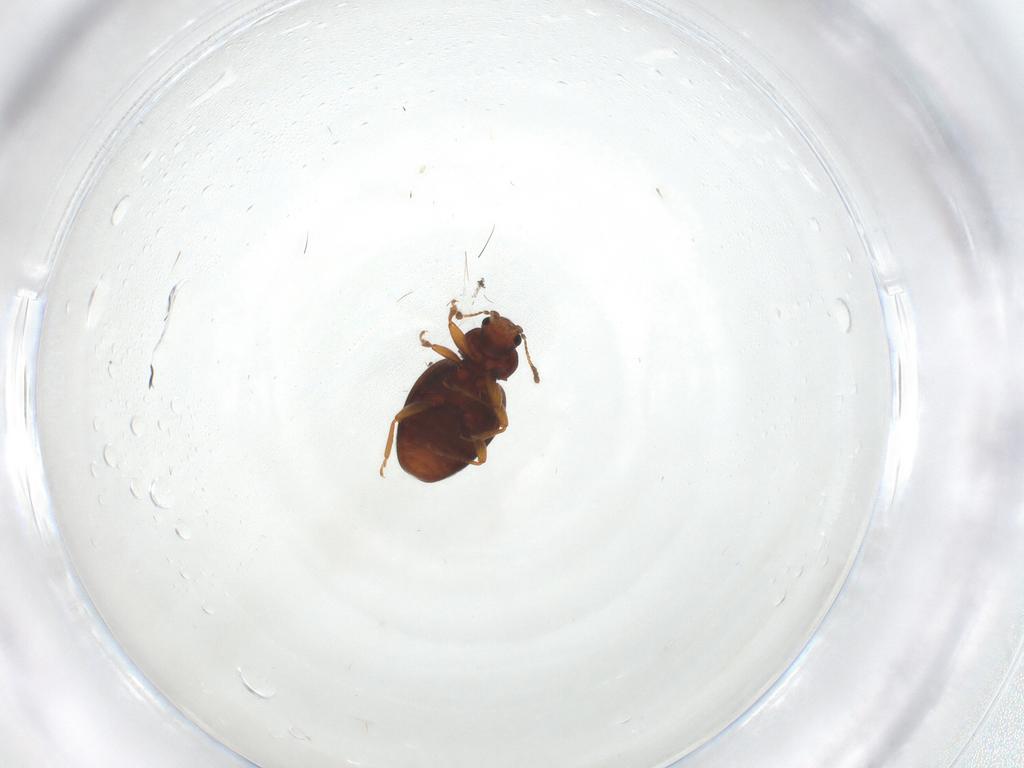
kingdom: Animalia
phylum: Arthropoda
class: Insecta
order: Coleoptera
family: Latridiidae
